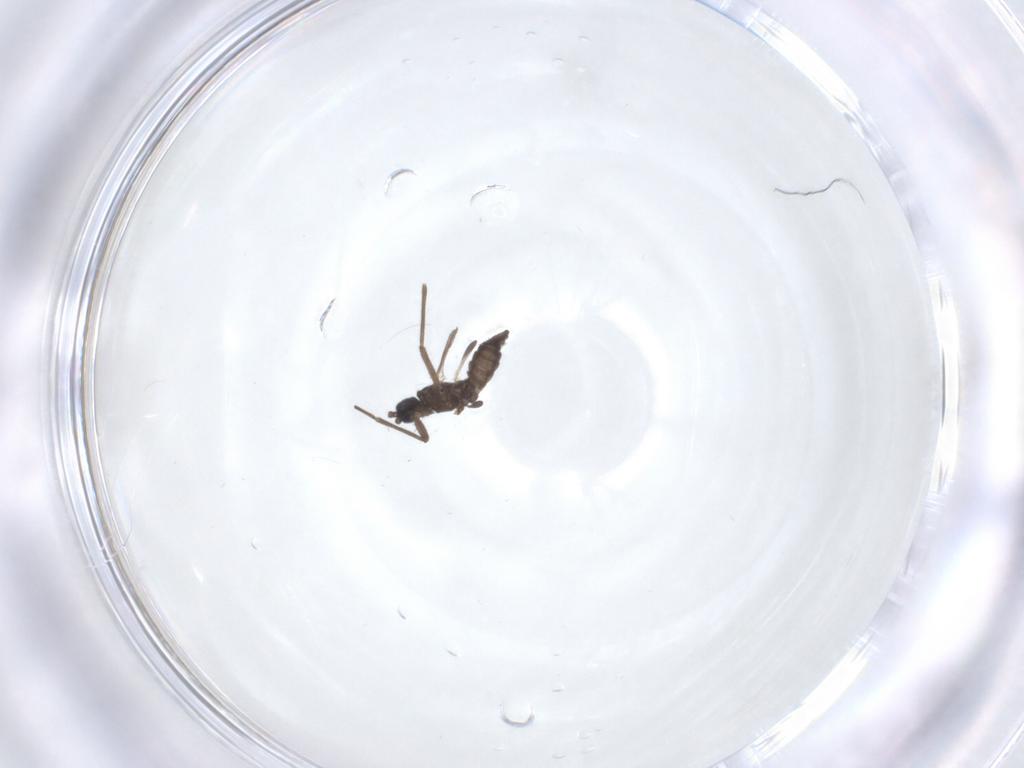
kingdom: Animalia
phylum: Arthropoda
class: Insecta
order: Diptera
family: Sciaridae
